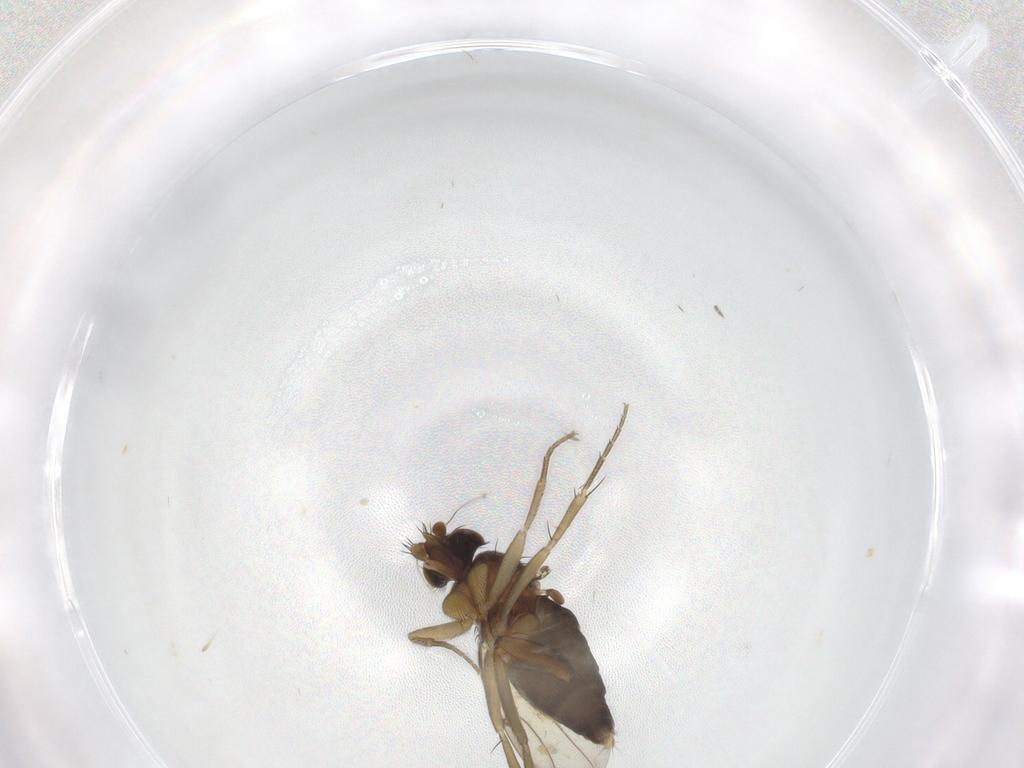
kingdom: Animalia
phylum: Arthropoda
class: Insecta
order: Diptera
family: Phoridae
